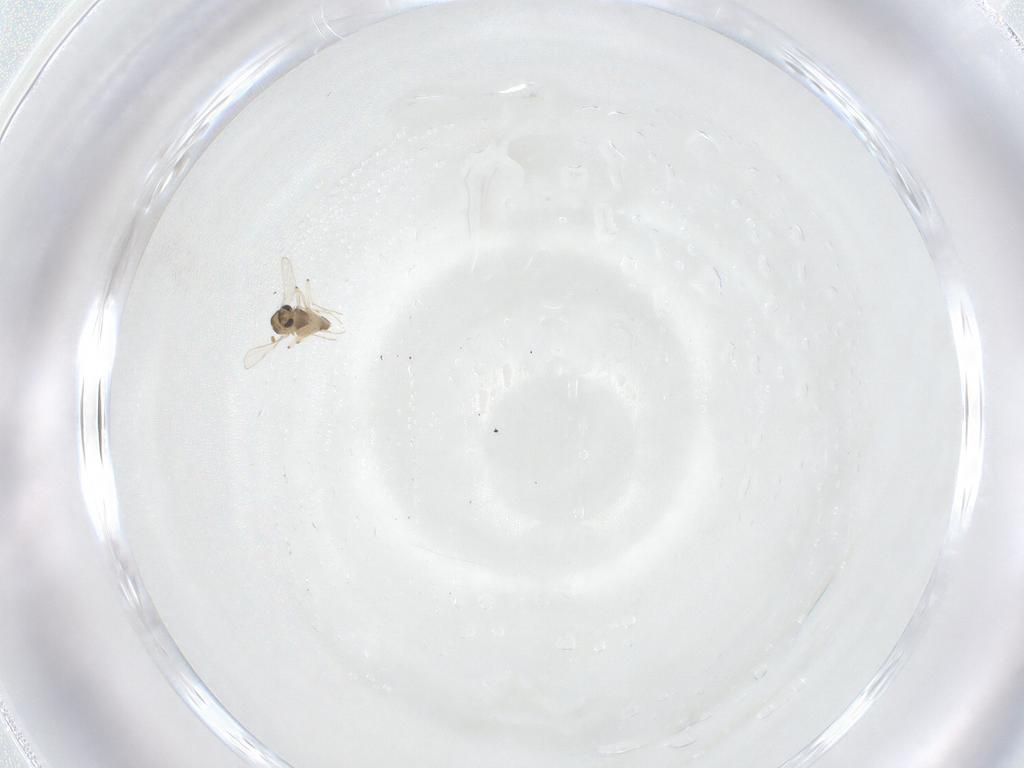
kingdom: Animalia
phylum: Arthropoda
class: Insecta
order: Diptera
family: Chironomidae
